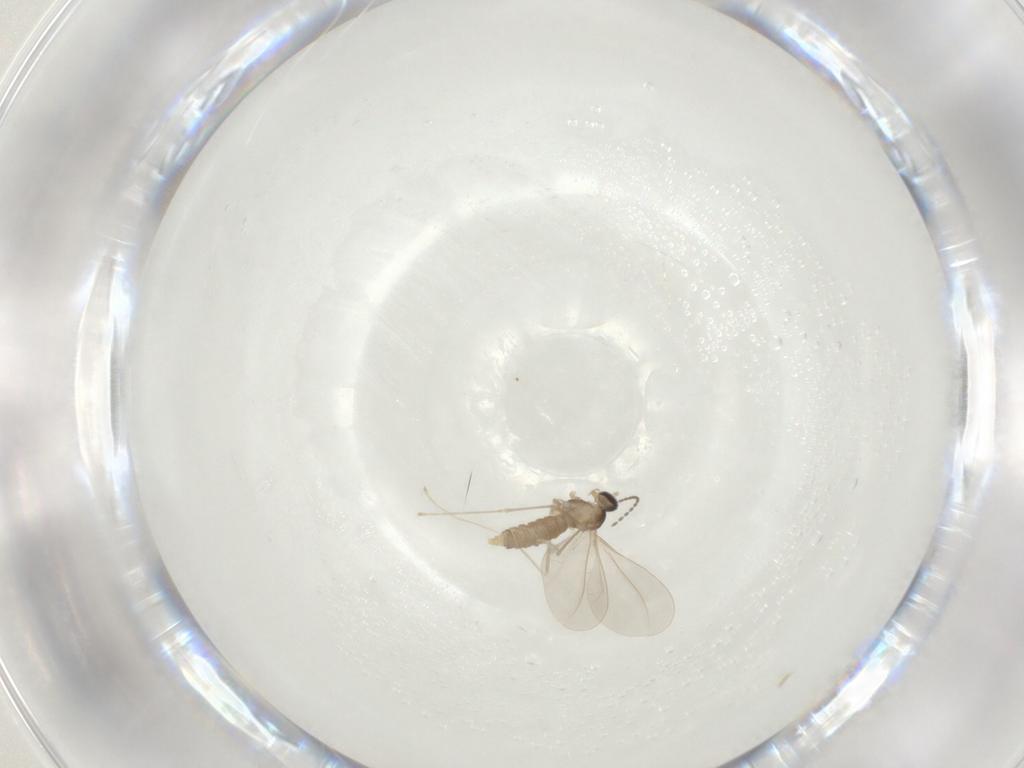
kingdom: Animalia
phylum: Arthropoda
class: Insecta
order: Diptera
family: Cecidomyiidae
